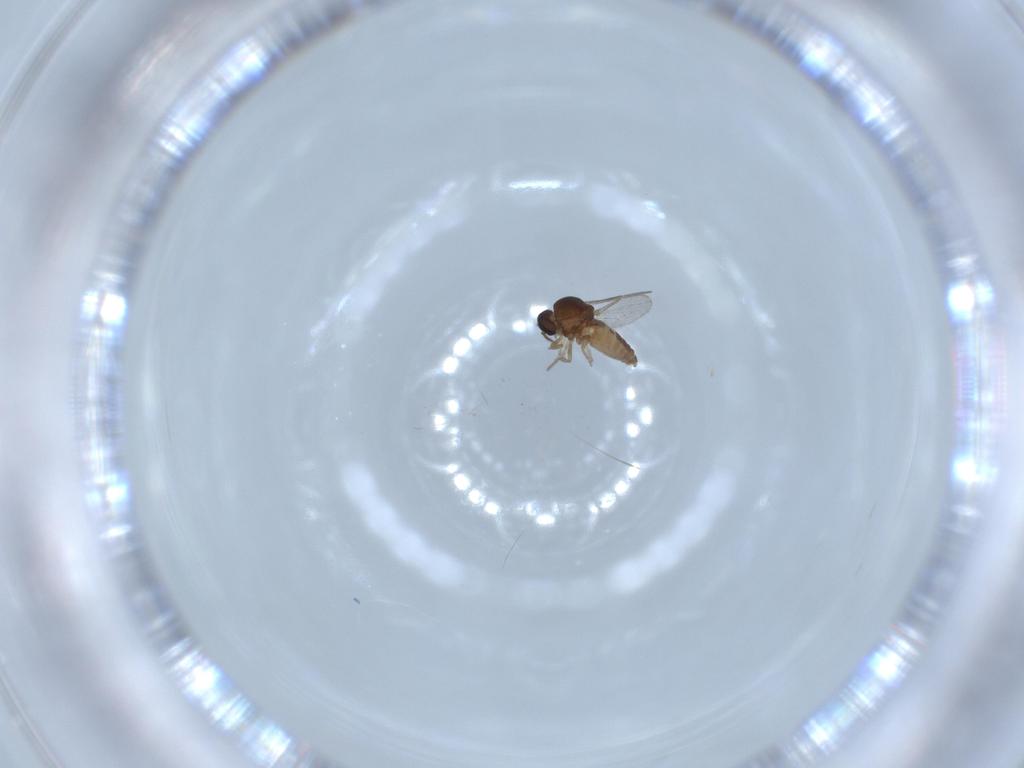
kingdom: Animalia
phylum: Arthropoda
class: Insecta
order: Diptera
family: Ceratopogonidae
